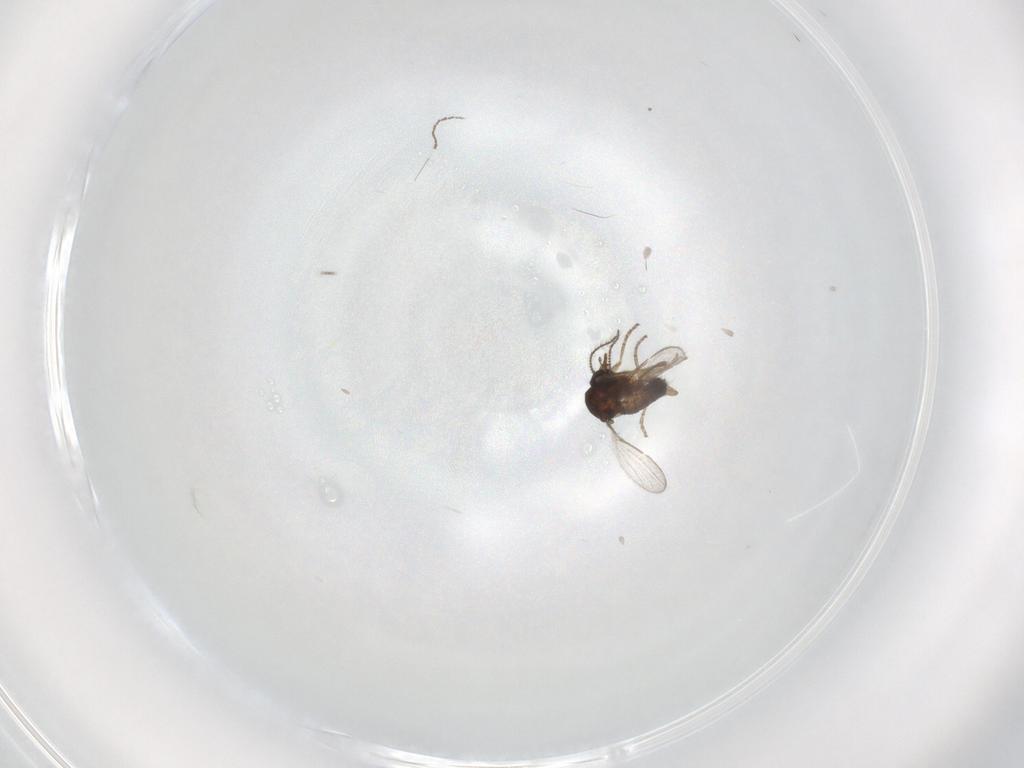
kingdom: Animalia
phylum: Arthropoda
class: Insecta
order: Diptera
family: Ceratopogonidae
